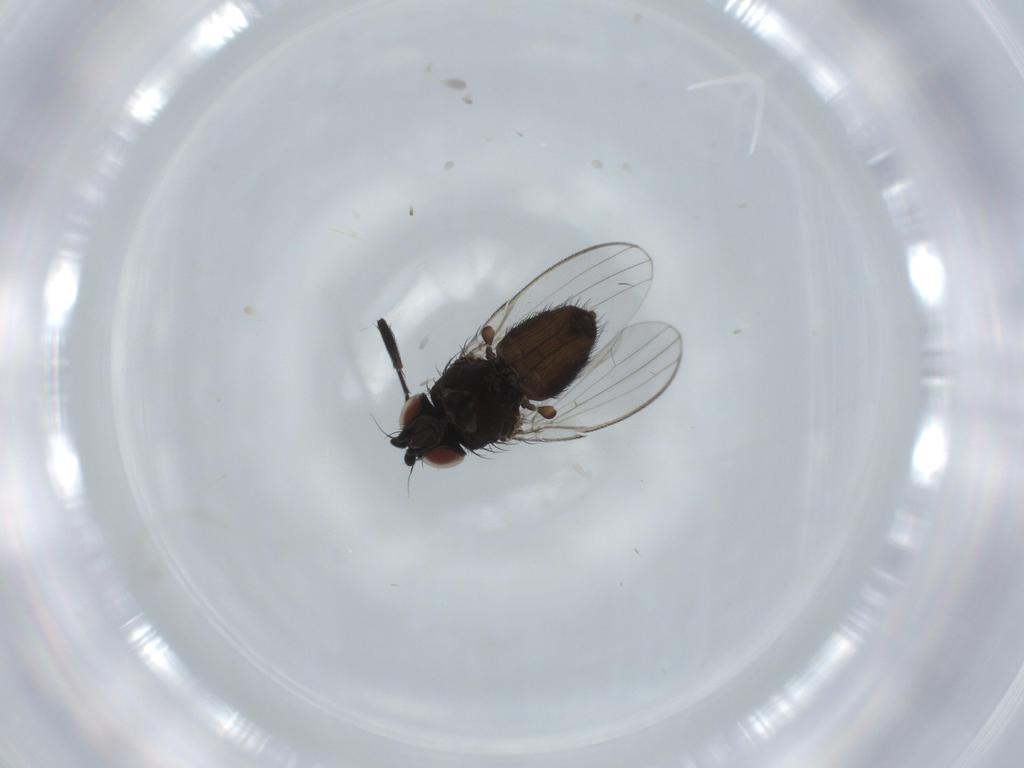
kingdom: Animalia
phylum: Arthropoda
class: Insecta
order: Diptera
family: Milichiidae
